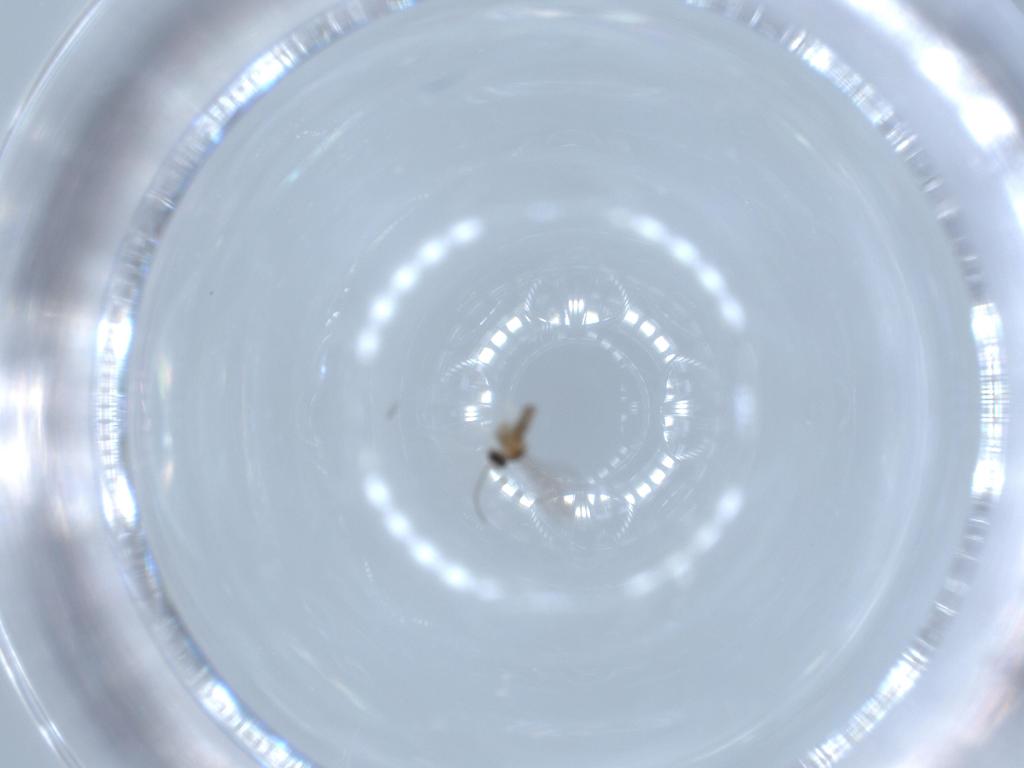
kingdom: Animalia
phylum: Arthropoda
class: Insecta
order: Diptera
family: Cecidomyiidae
